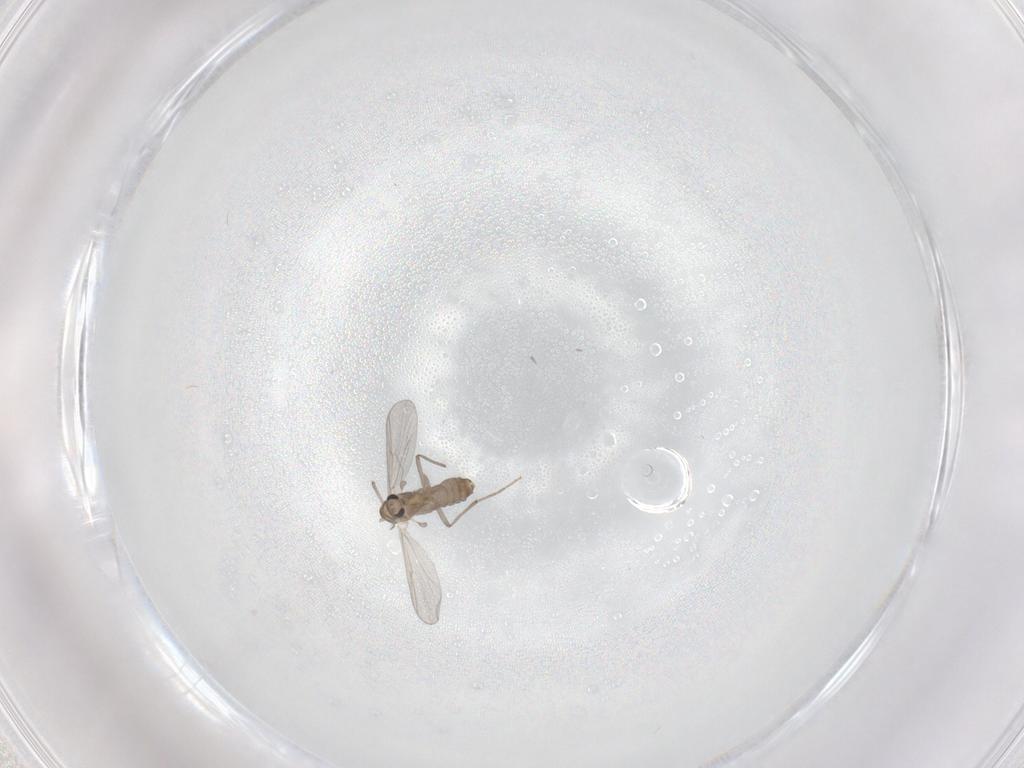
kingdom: Animalia
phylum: Arthropoda
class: Insecta
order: Diptera
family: Chironomidae
